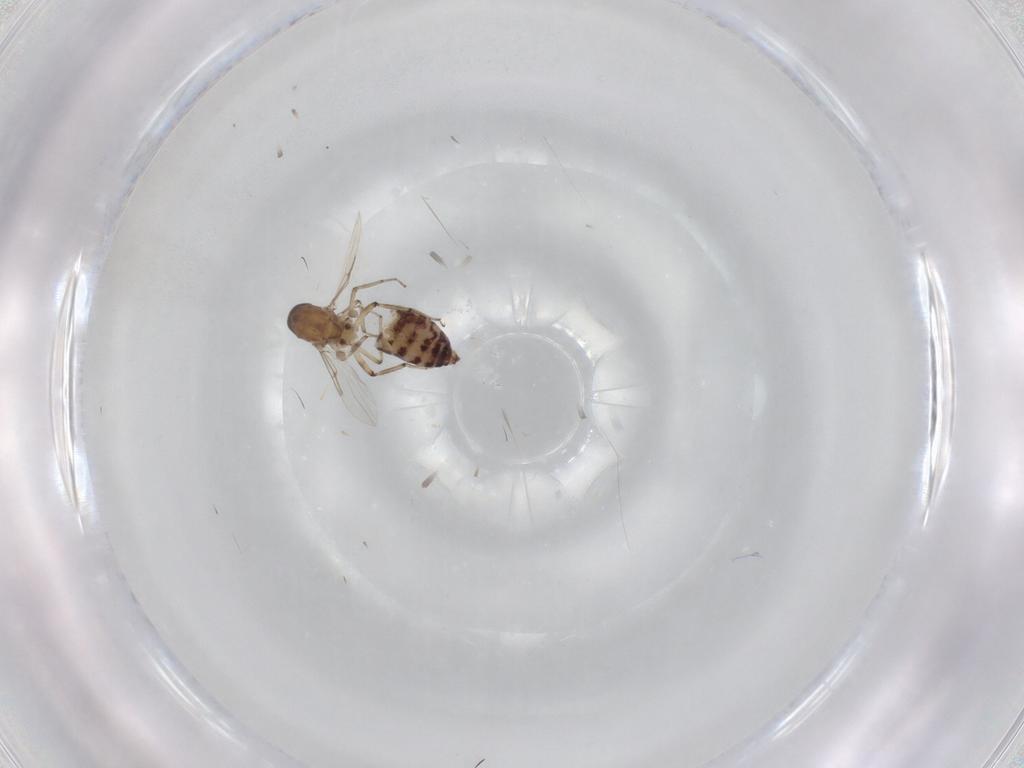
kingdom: Animalia
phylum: Arthropoda
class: Insecta
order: Diptera
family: Ceratopogonidae
